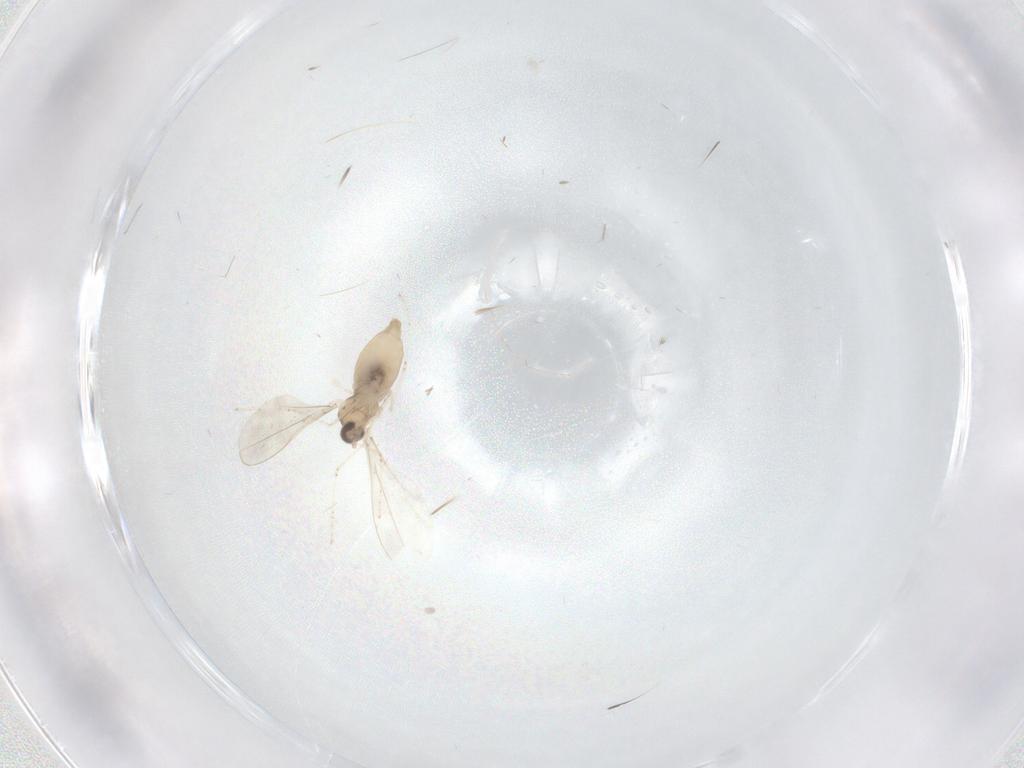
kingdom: Animalia
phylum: Arthropoda
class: Insecta
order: Diptera
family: Cecidomyiidae
